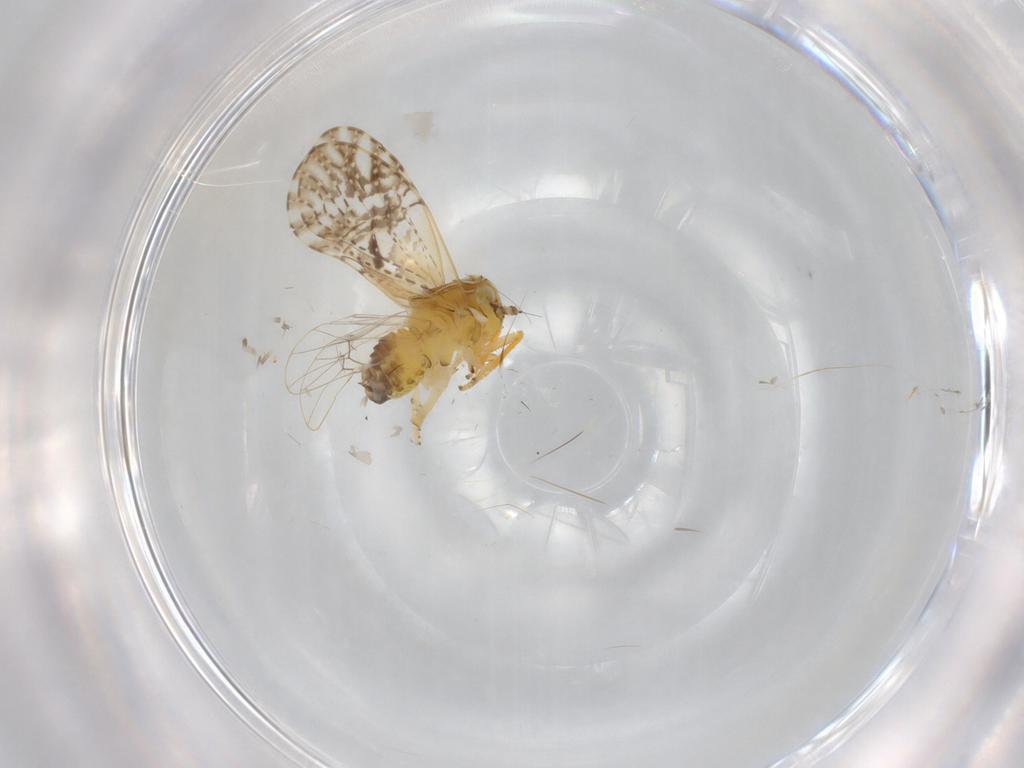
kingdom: Animalia
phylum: Arthropoda
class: Insecta
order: Hemiptera
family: Delphacidae
